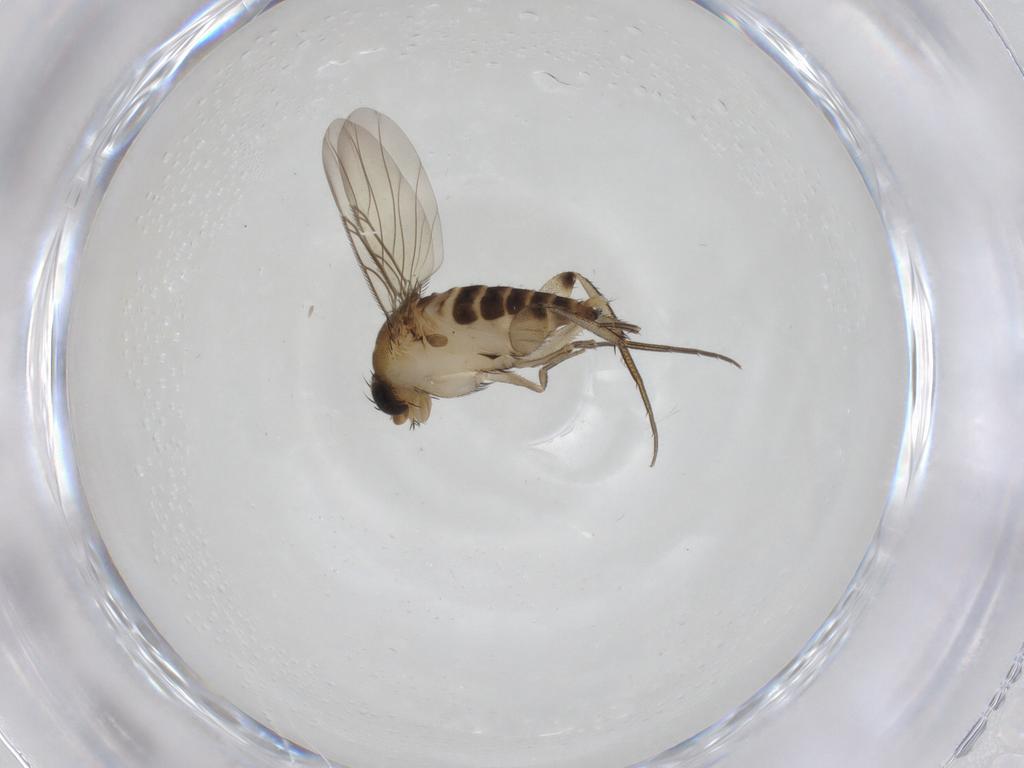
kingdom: Animalia
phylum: Arthropoda
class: Insecta
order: Diptera
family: Phoridae
